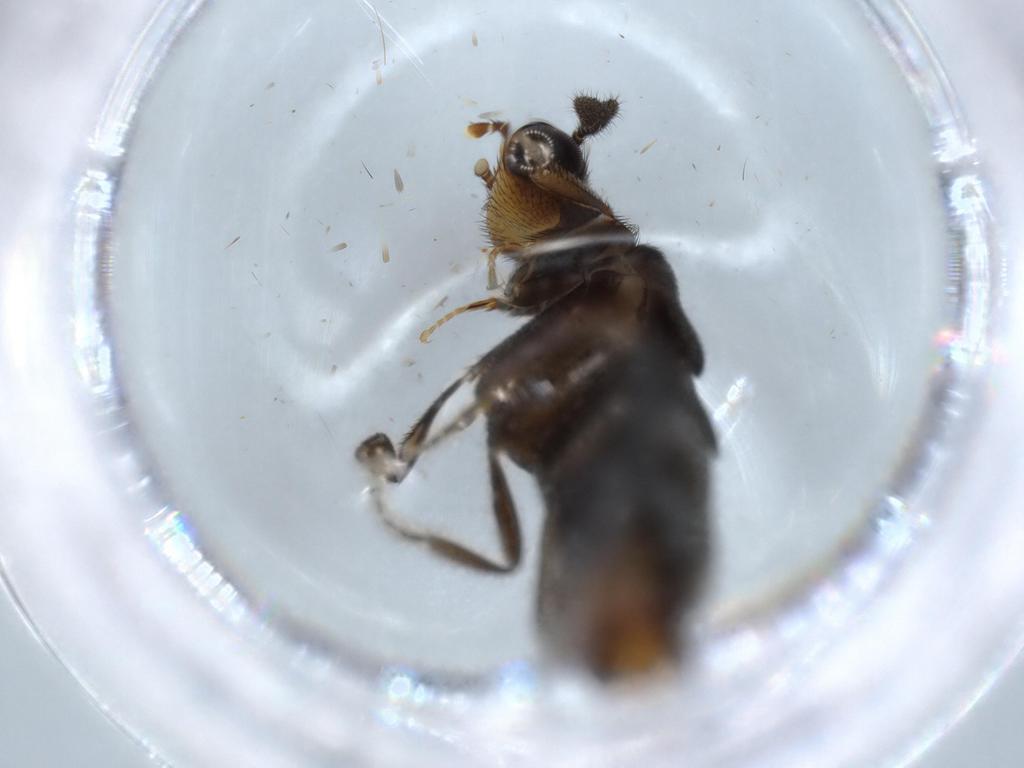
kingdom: Animalia
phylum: Arthropoda
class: Insecta
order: Coleoptera
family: Phengodidae
